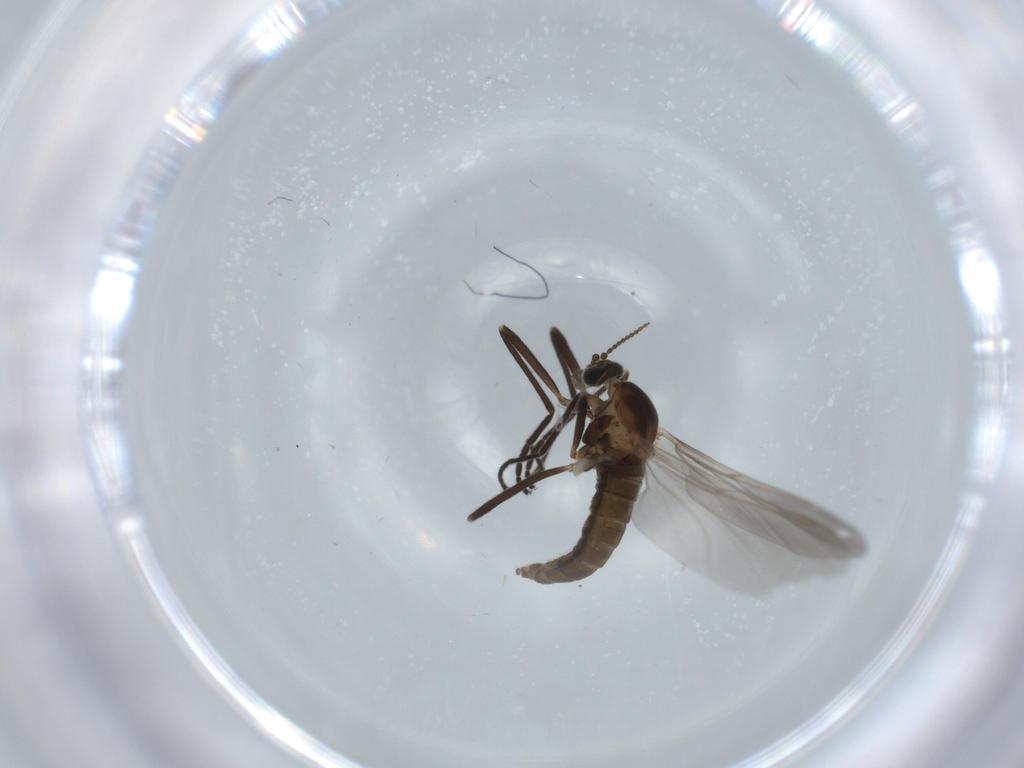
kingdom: Animalia
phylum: Arthropoda
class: Insecta
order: Diptera
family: Cecidomyiidae
